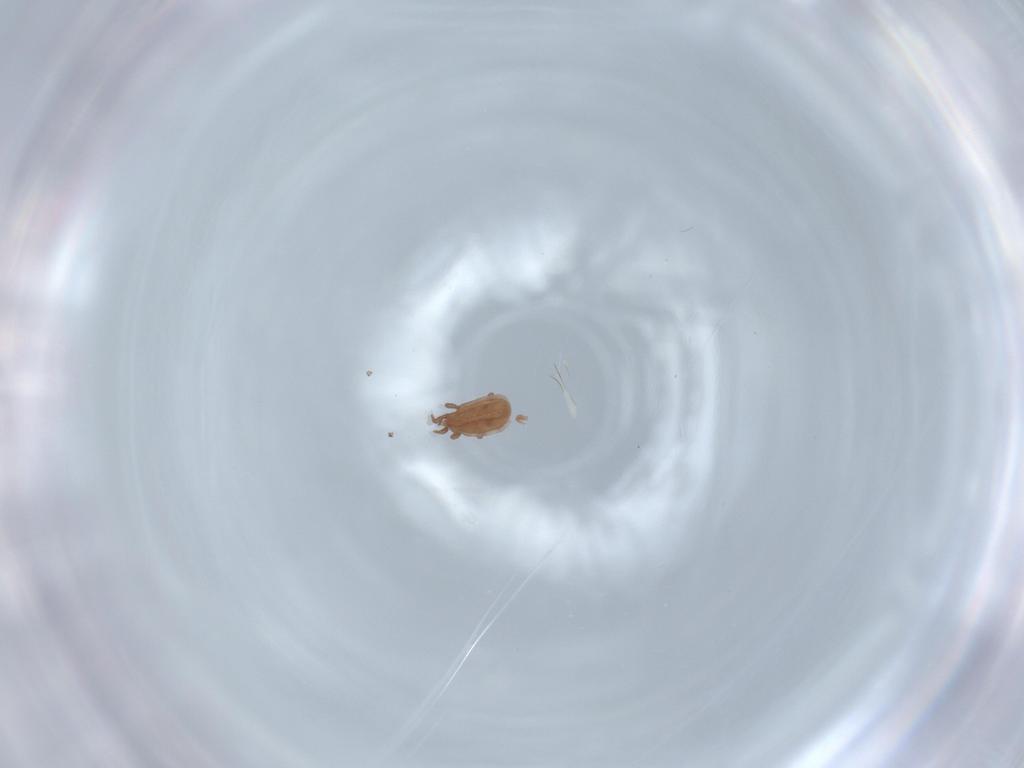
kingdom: Animalia
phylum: Arthropoda
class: Arachnida
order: Mesostigmata
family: Dinychidae
